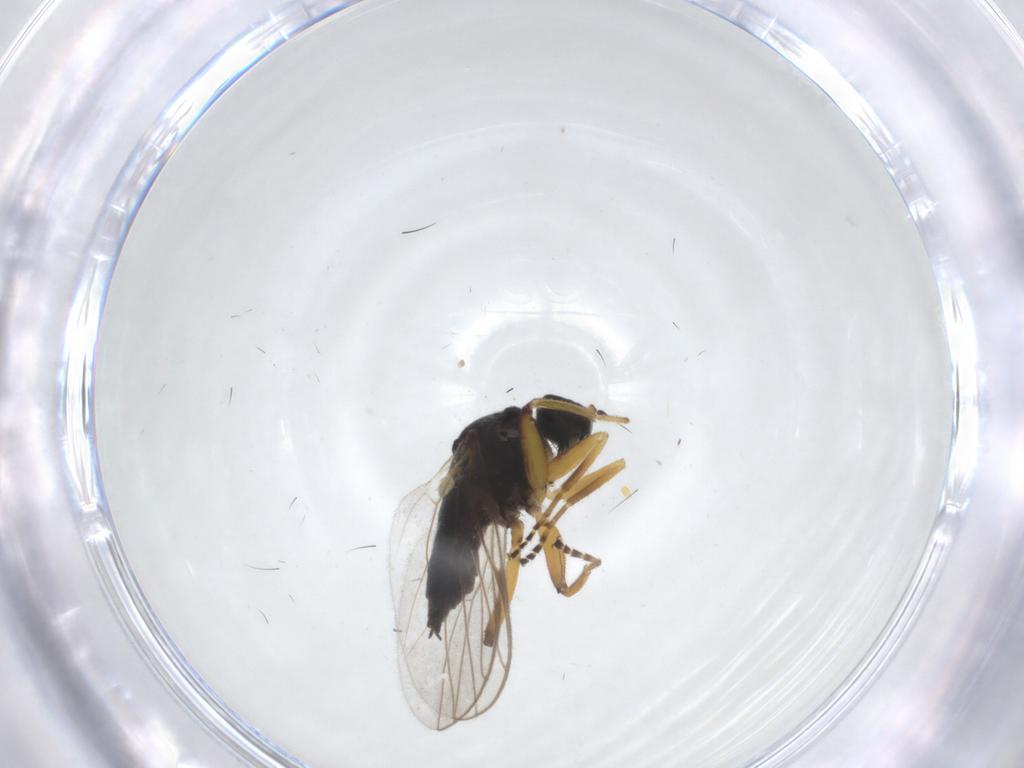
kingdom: Animalia
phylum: Arthropoda
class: Insecta
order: Diptera
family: Hybotidae
